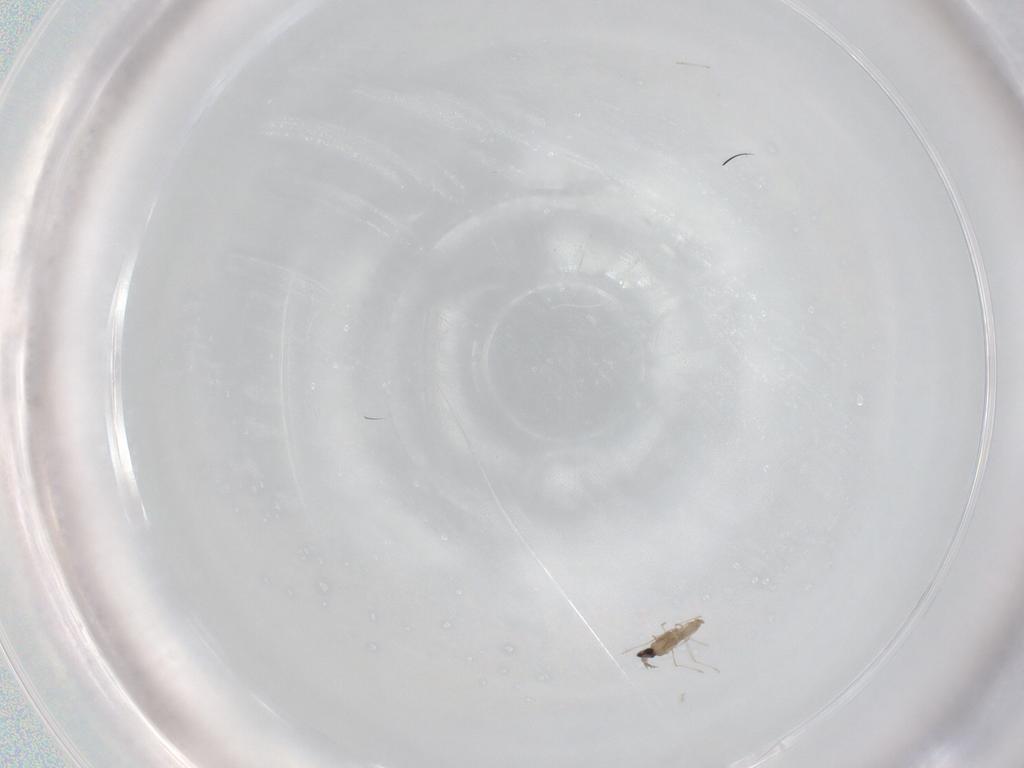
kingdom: Animalia
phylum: Arthropoda
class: Insecta
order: Diptera
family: Cecidomyiidae
